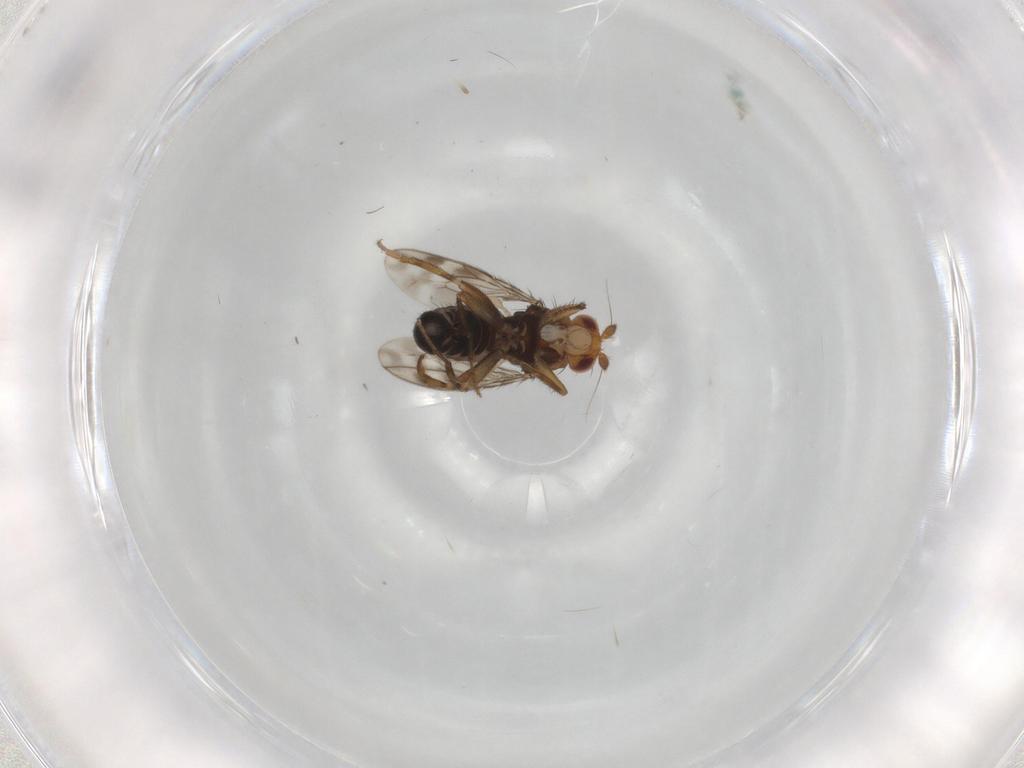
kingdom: Animalia
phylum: Arthropoda
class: Insecta
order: Diptera
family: Sphaeroceridae
